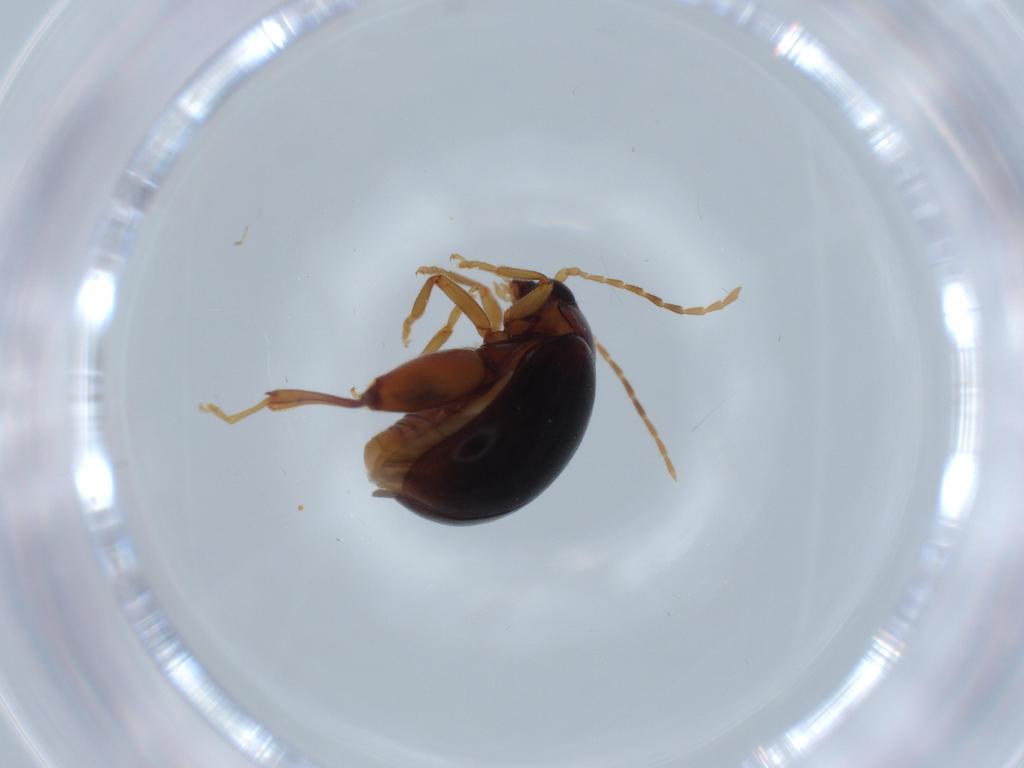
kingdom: Animalia
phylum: Arthropoda
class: Insecta
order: Coleoptera
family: Chrysomelidae
